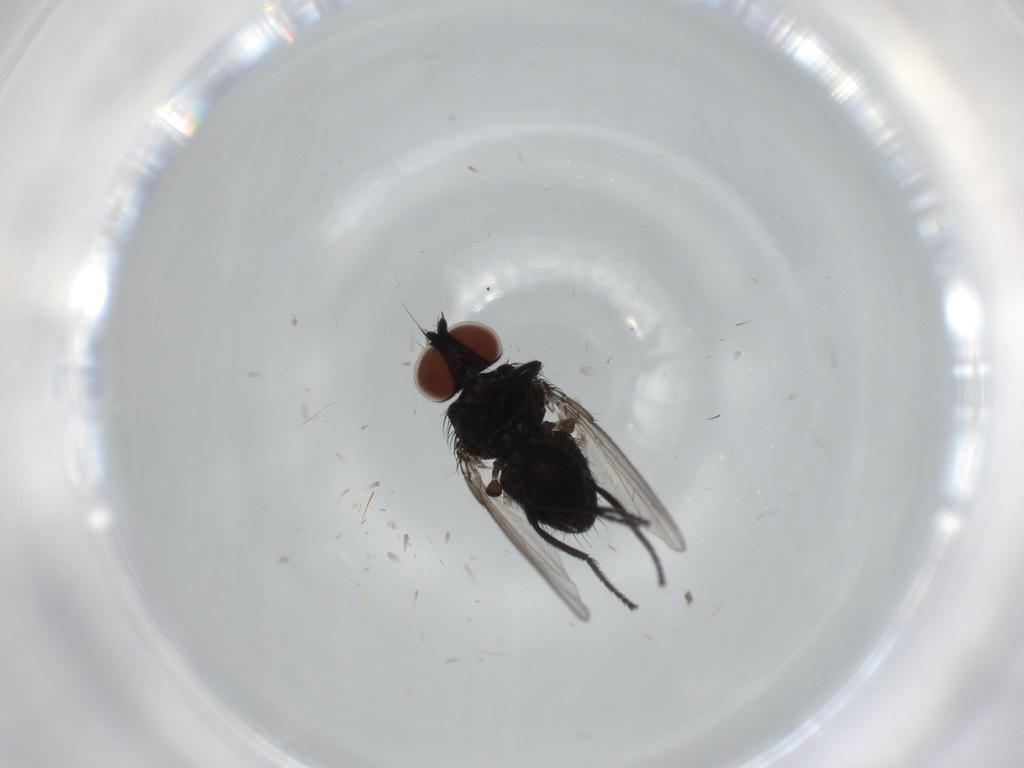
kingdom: Animalia
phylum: Arthropoda
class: Insecta
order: Diptera
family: Milichiidae
